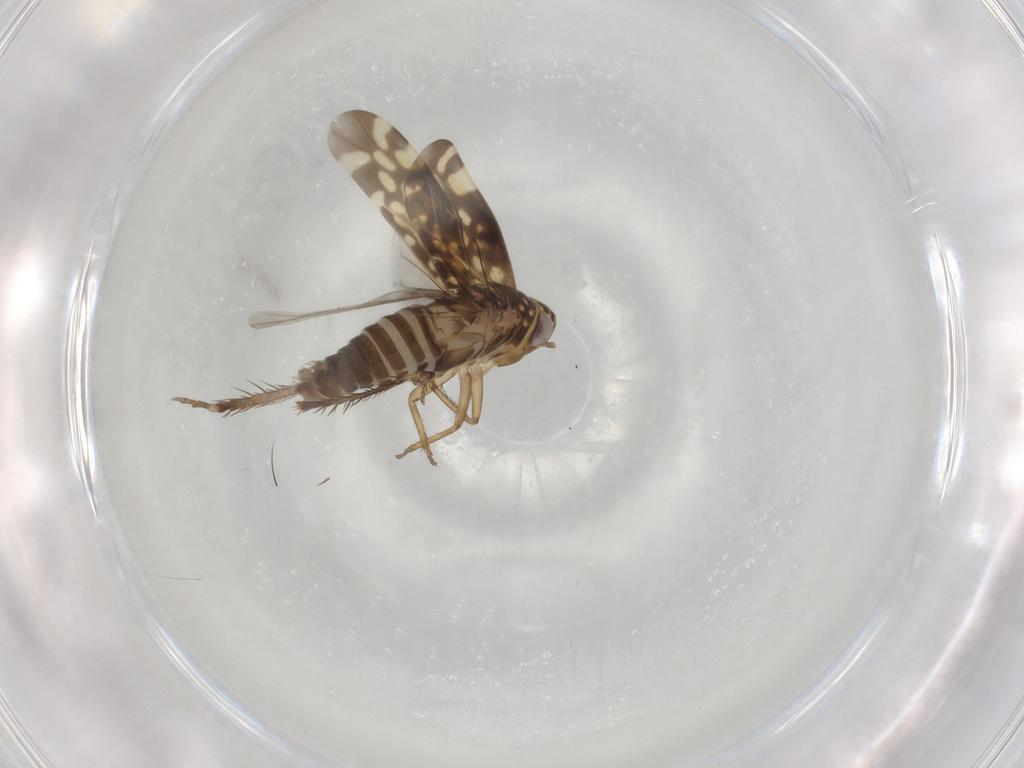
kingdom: Animalia
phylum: Arthropoda
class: Insecta
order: Hemiptera
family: Cicadellidae
